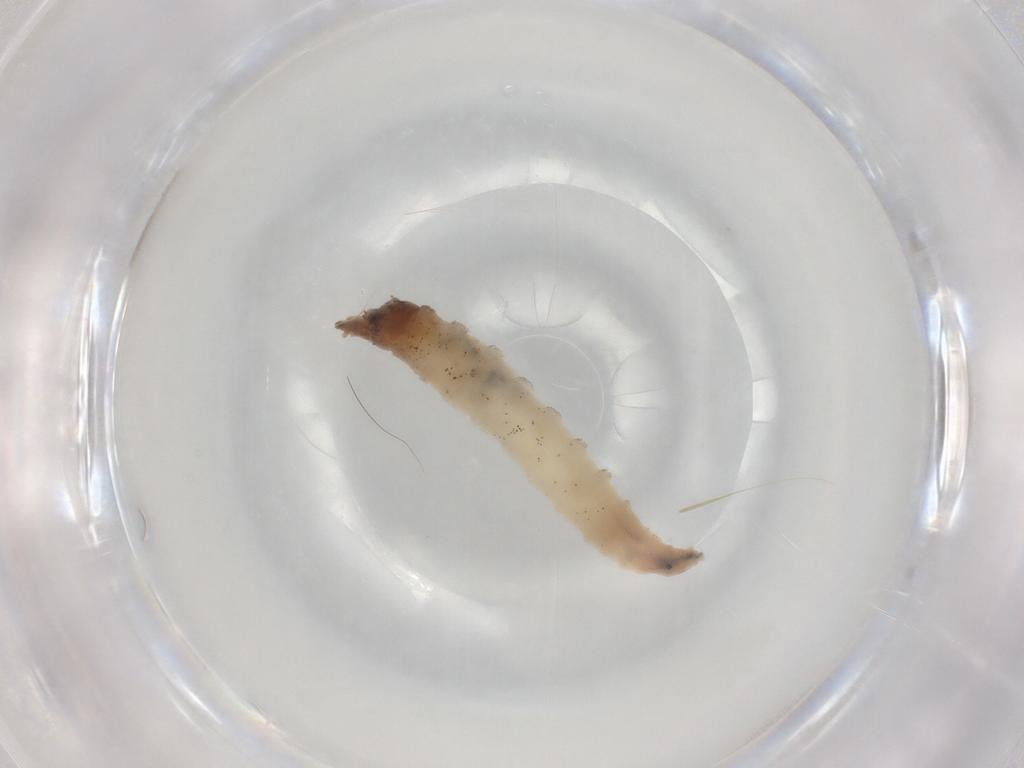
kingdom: Animalia
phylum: Arthropoda
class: Insecta
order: Diptera
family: Drosophilidae
